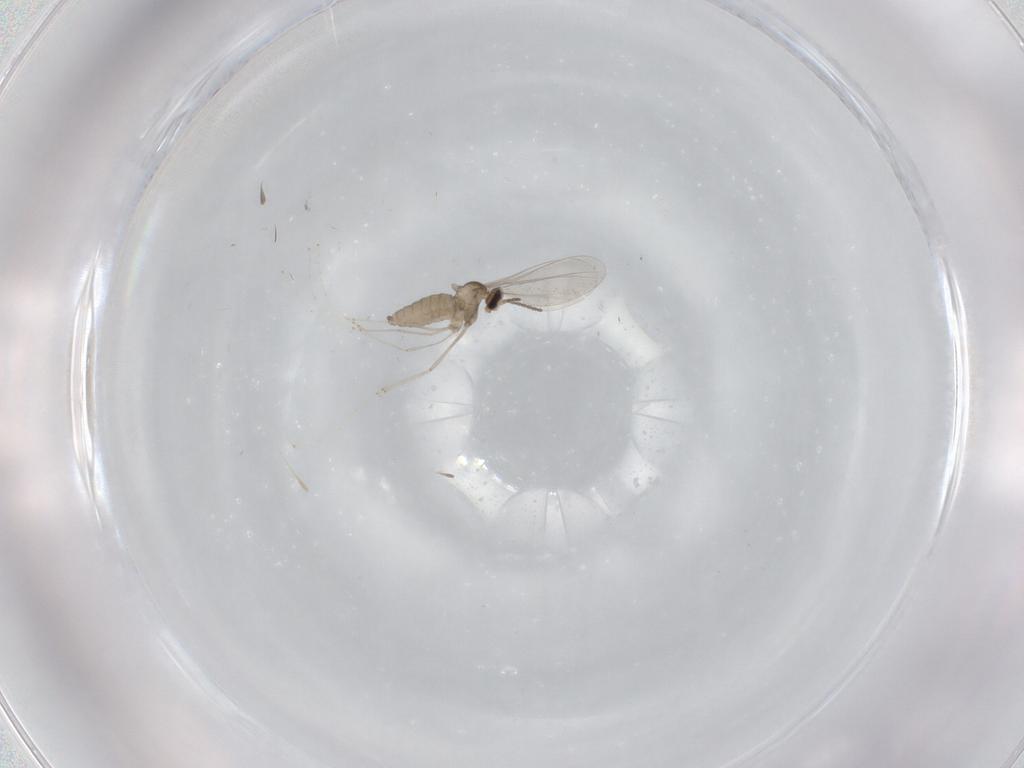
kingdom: Animalia
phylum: Arthropoda
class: Insecta
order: Diptera
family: Cecidomyiidae
